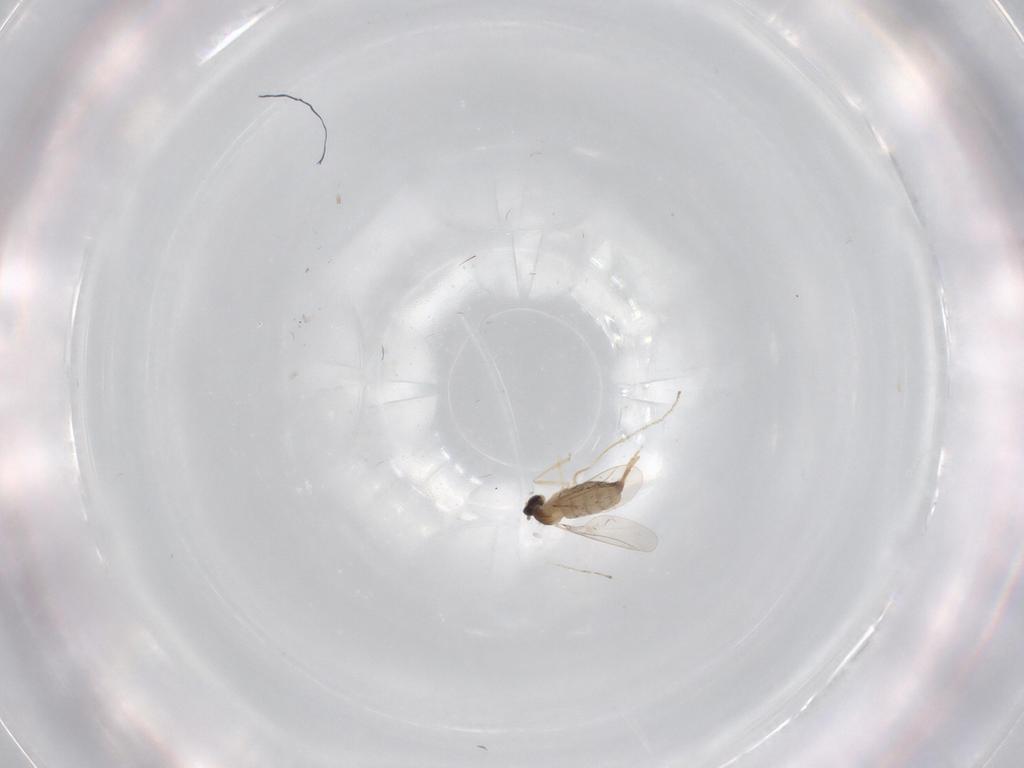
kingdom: Animalia
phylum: Arthropoda
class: Insecta
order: Diptera
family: Cecidomyiidae
